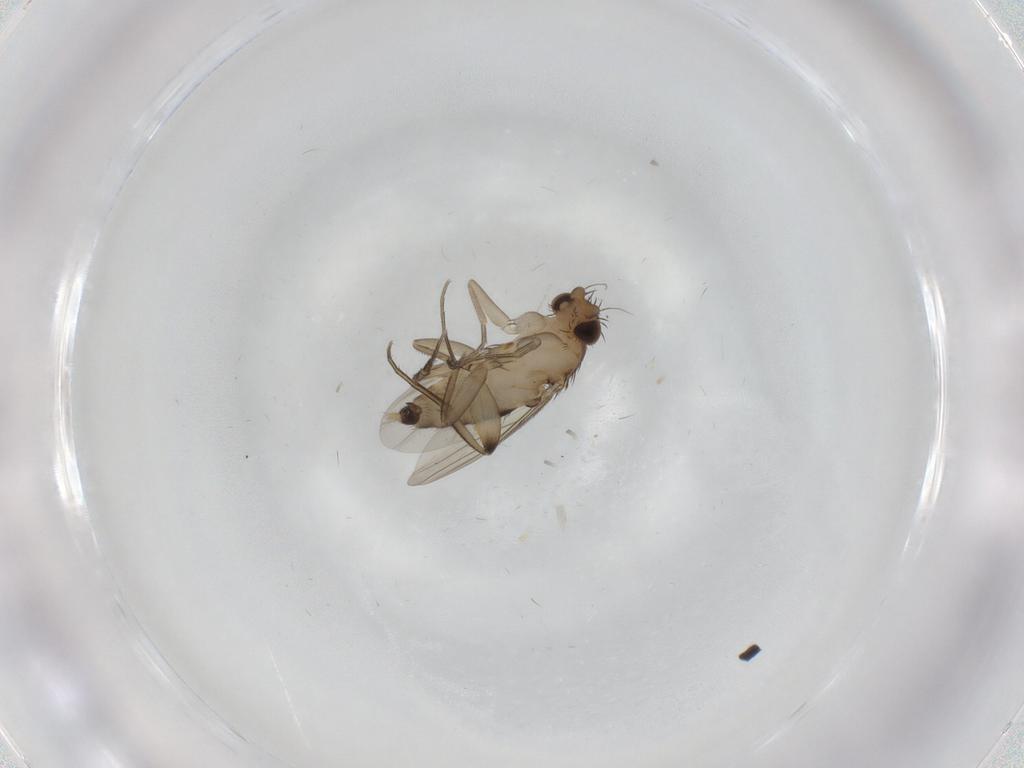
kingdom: Animalia
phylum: Arthropoda
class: Insecta
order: Diptera
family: Cecidomyiidae
